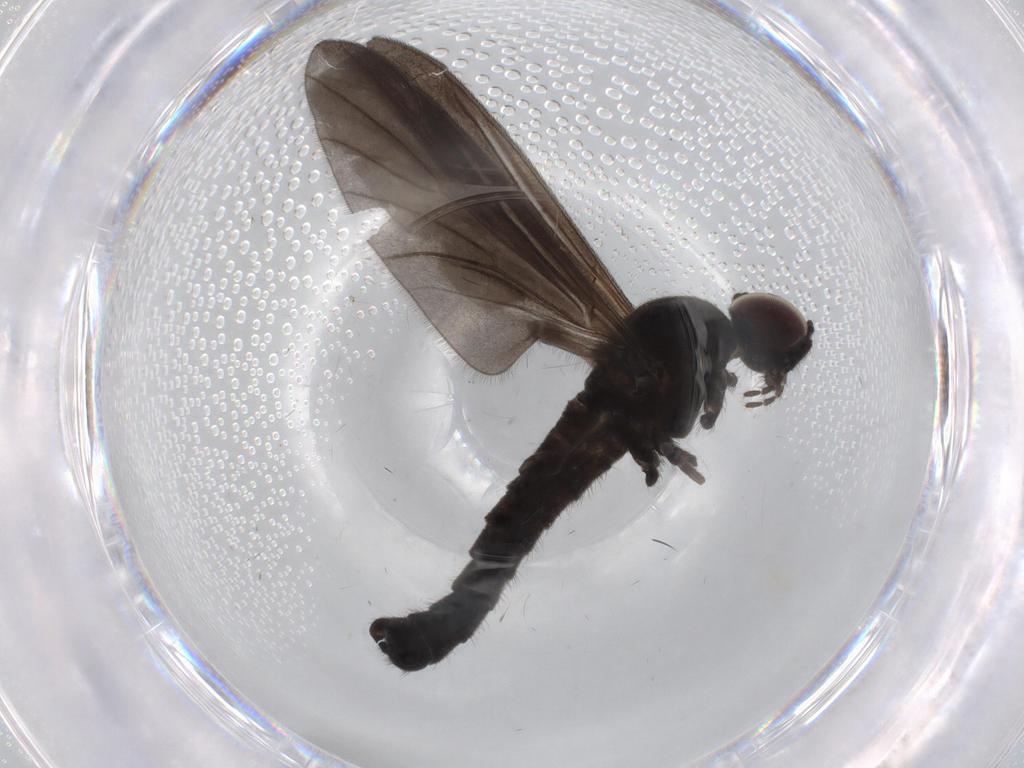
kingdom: Animalia
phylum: Arthropoda
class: Insecta
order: Diptera
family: Bibionidae
